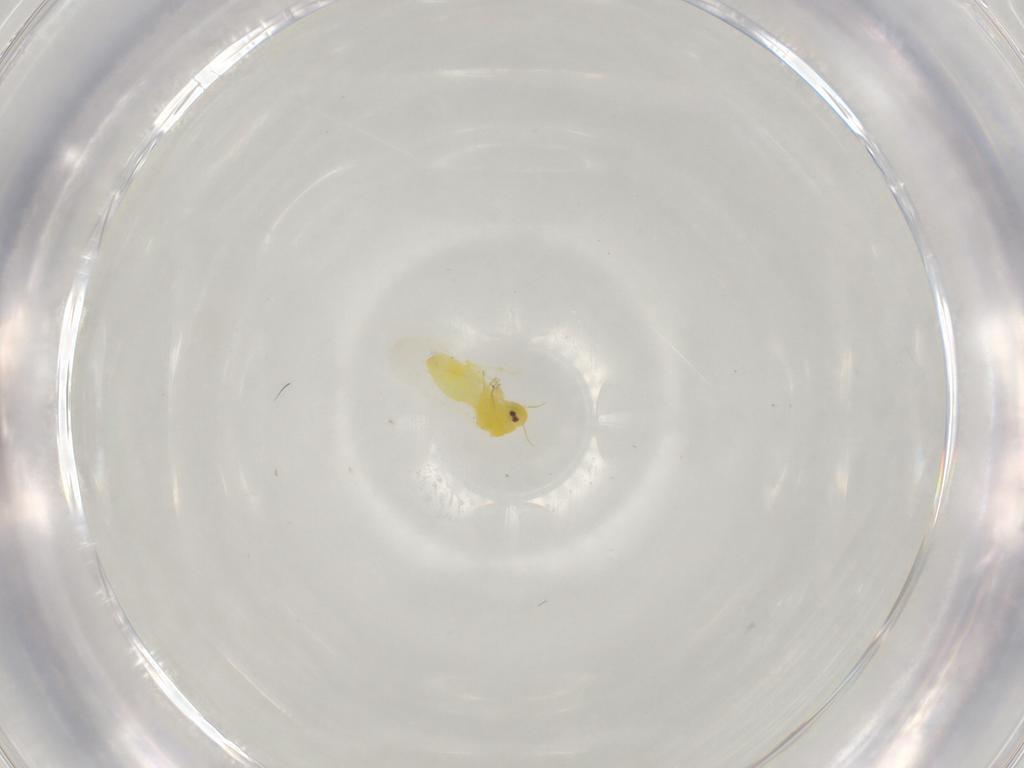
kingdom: Animalia
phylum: Arthropoda
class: Insecta
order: Hemiptera
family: Aleyrodidae
